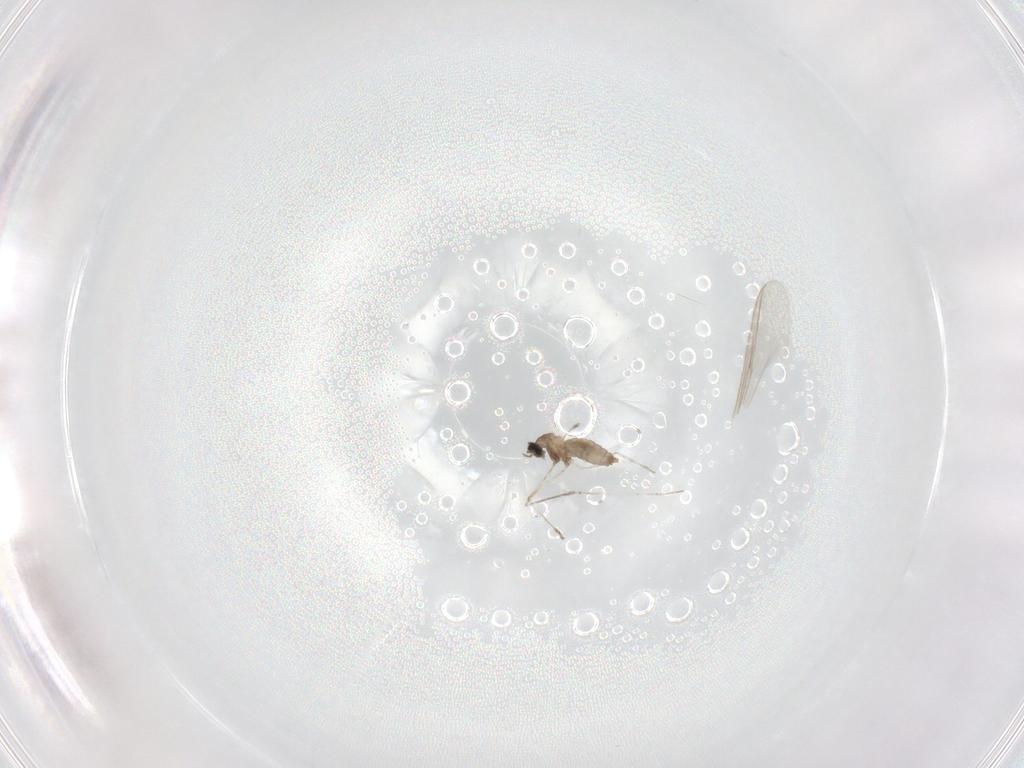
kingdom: Animalia
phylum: Arthropoda
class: Insecta
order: Diptera
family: Cecidomyiidae
